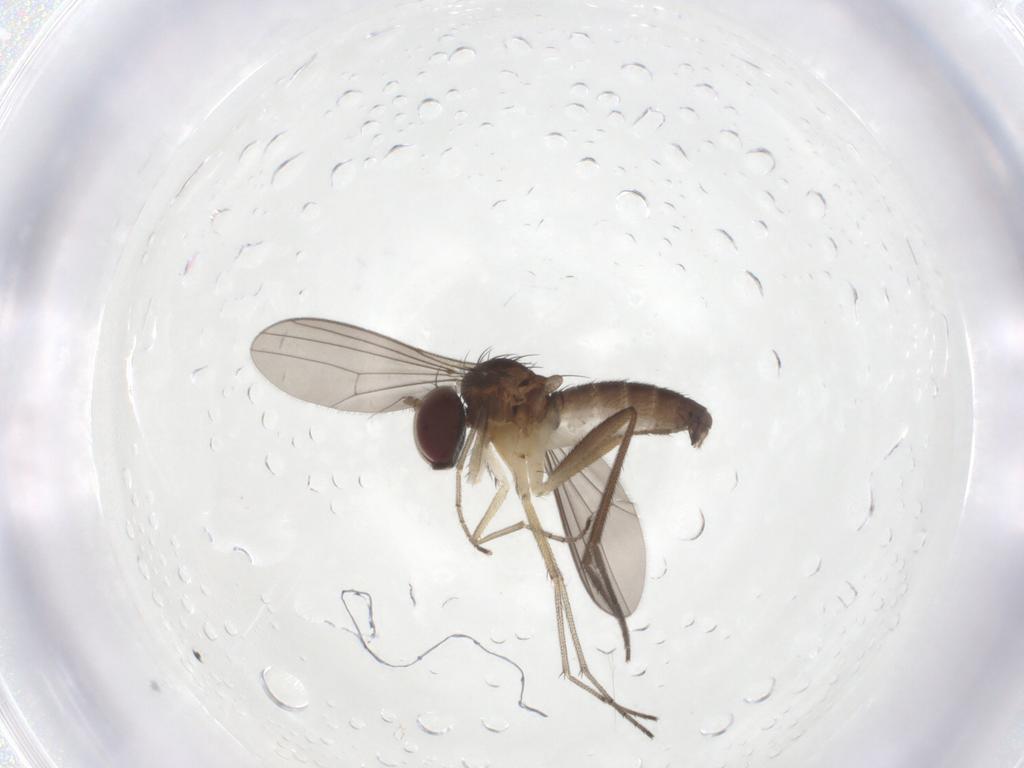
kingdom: Animalia
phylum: Arthropoda
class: Insecta
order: Diptera
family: Dolichopodidae
